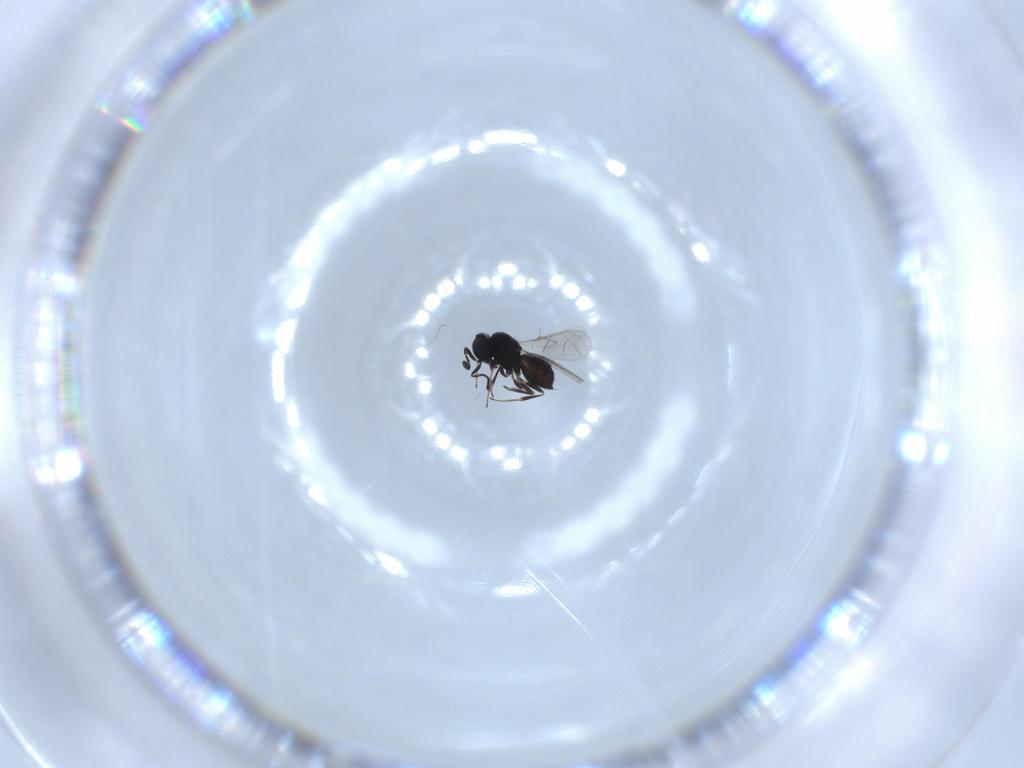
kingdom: Animalia
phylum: Arthropoda
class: Insecta
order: Hymenoptera
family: Scelionidae
